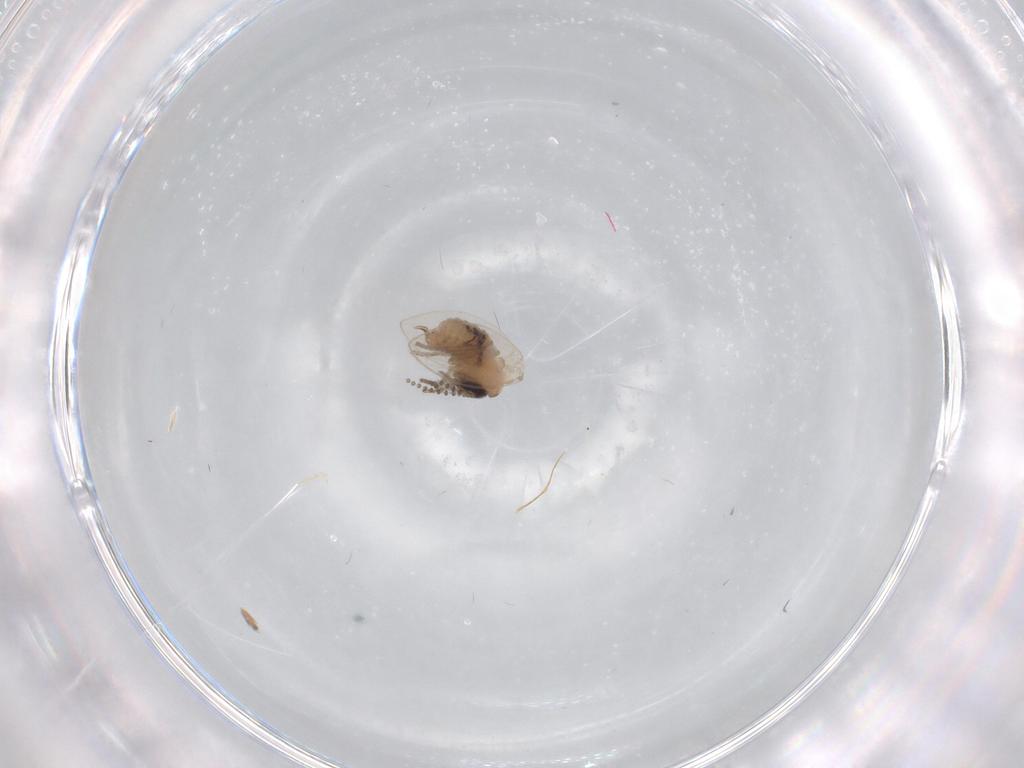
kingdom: Animalia
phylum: Arthropoda
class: Insecta
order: Diptera
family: Psychodidae
